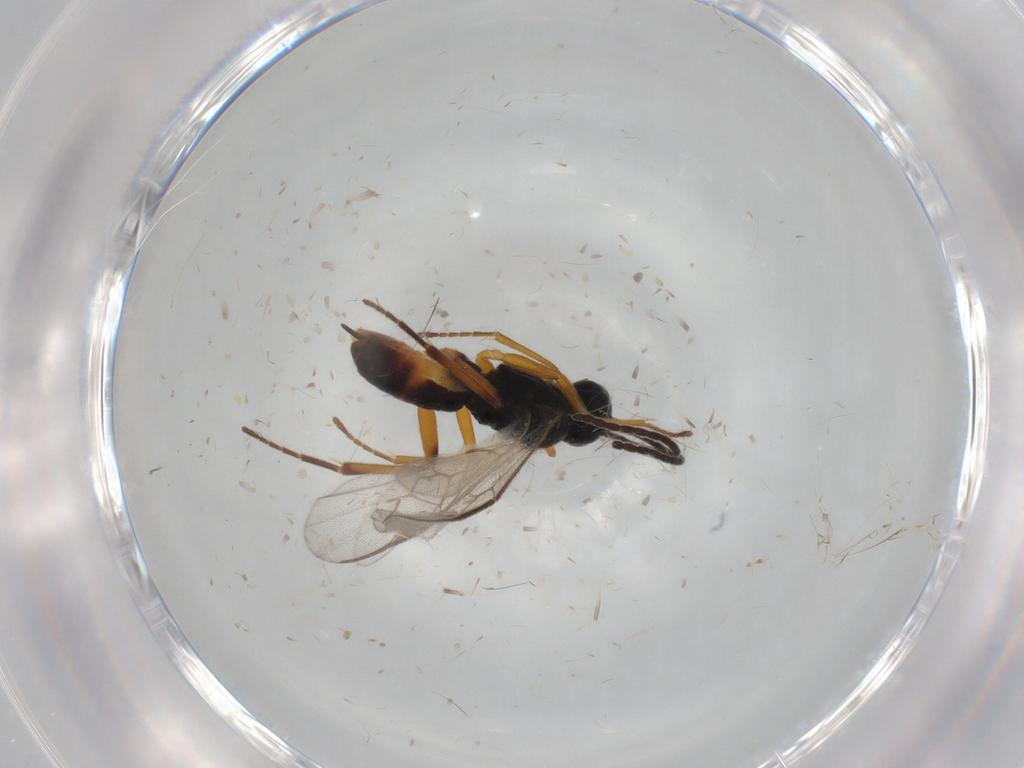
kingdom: Animalia
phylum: Arthropoda
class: Insecta
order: Hymenoptera
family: Braconidae
